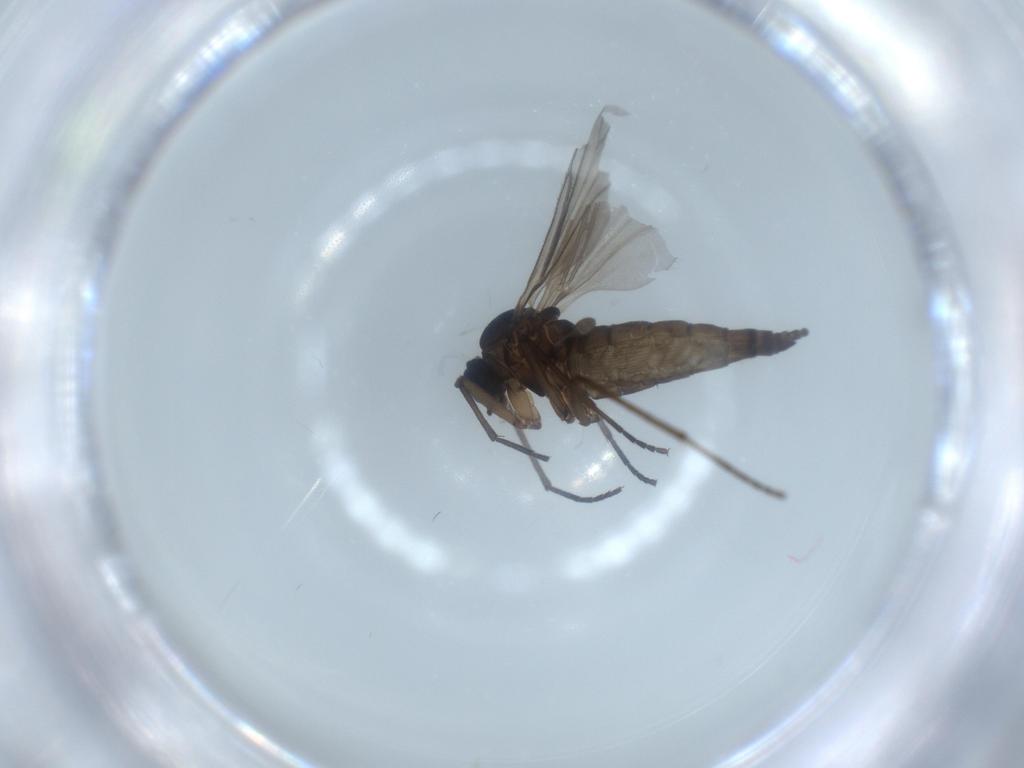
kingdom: Animalia
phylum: Arthropoda
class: Insecta
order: Diptera
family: Sciaridae
